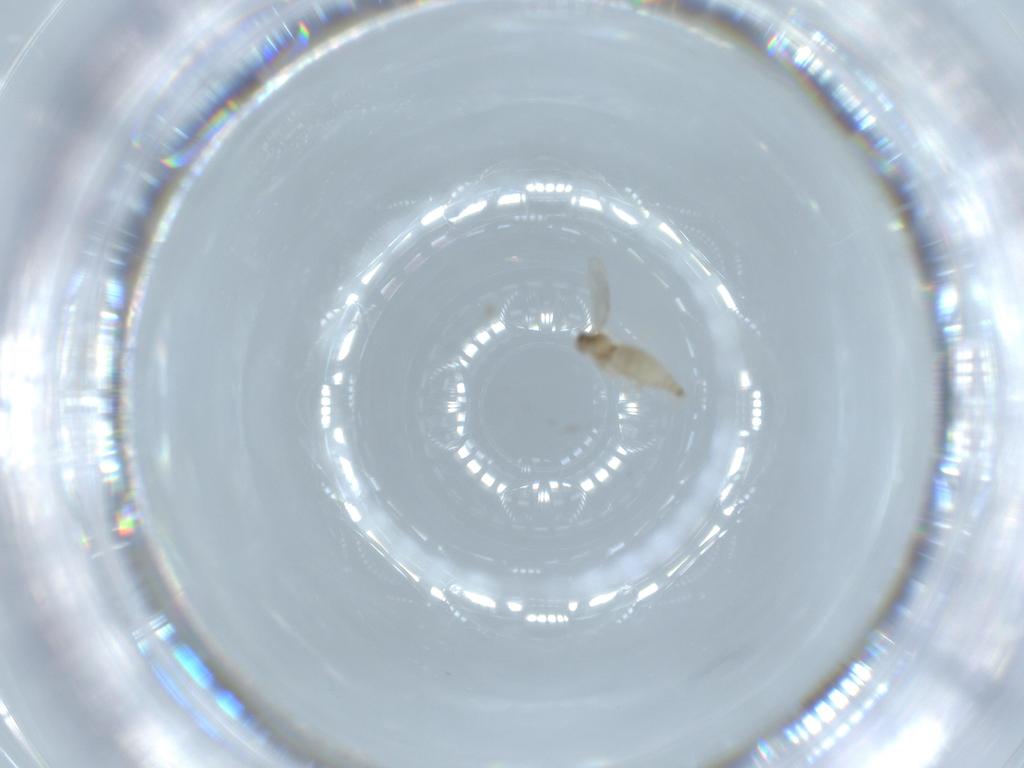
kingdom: Animalia
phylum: Arthropoda
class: Insecta
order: Diptera
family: Cecidomyiidae
